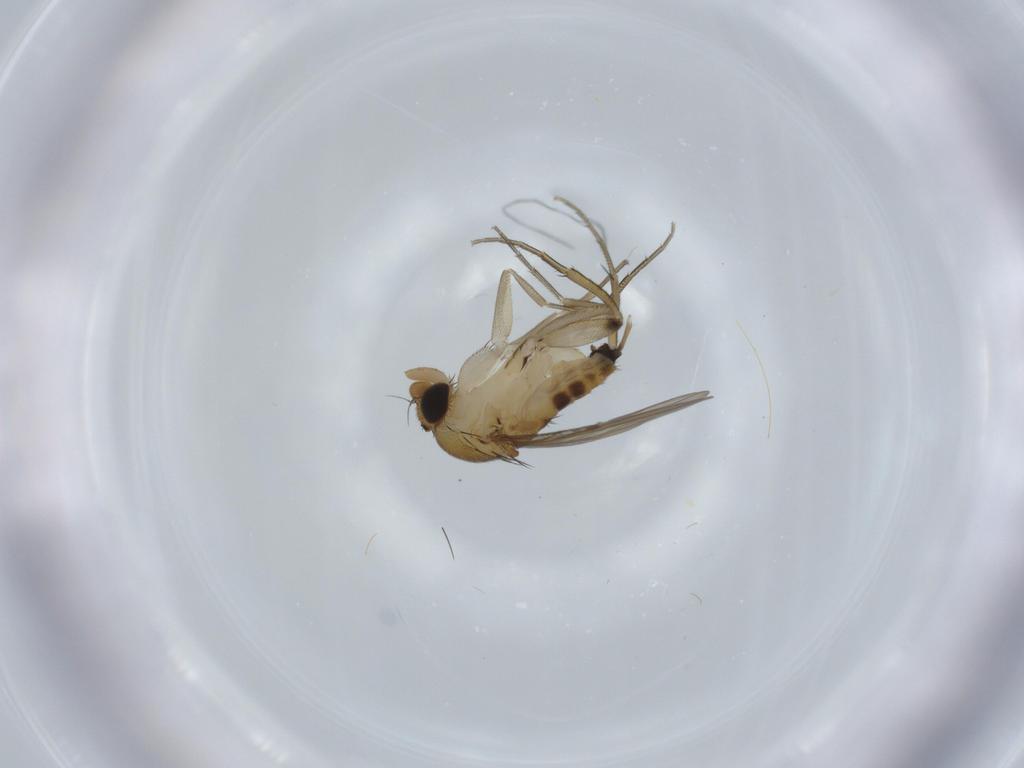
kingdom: Animalia
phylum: Arthropoda
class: Insecta
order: Diptera
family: Phoridae
